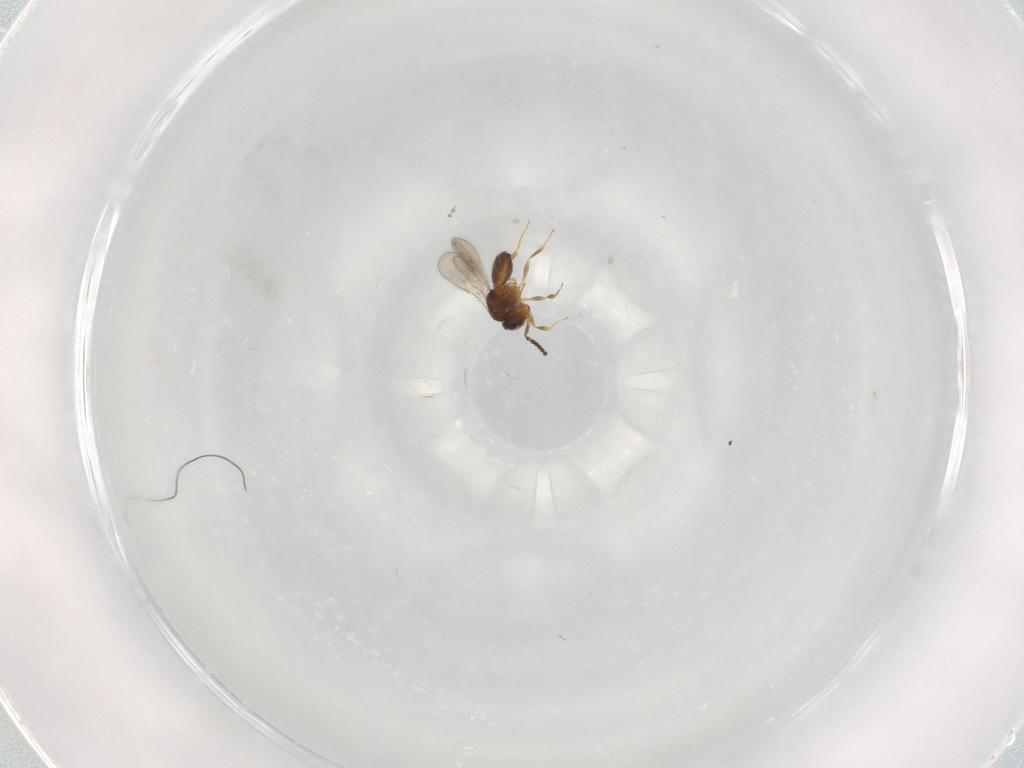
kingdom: Animalia
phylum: Arthropoda
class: Insecta
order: Hymenoptera
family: Scelionidae
